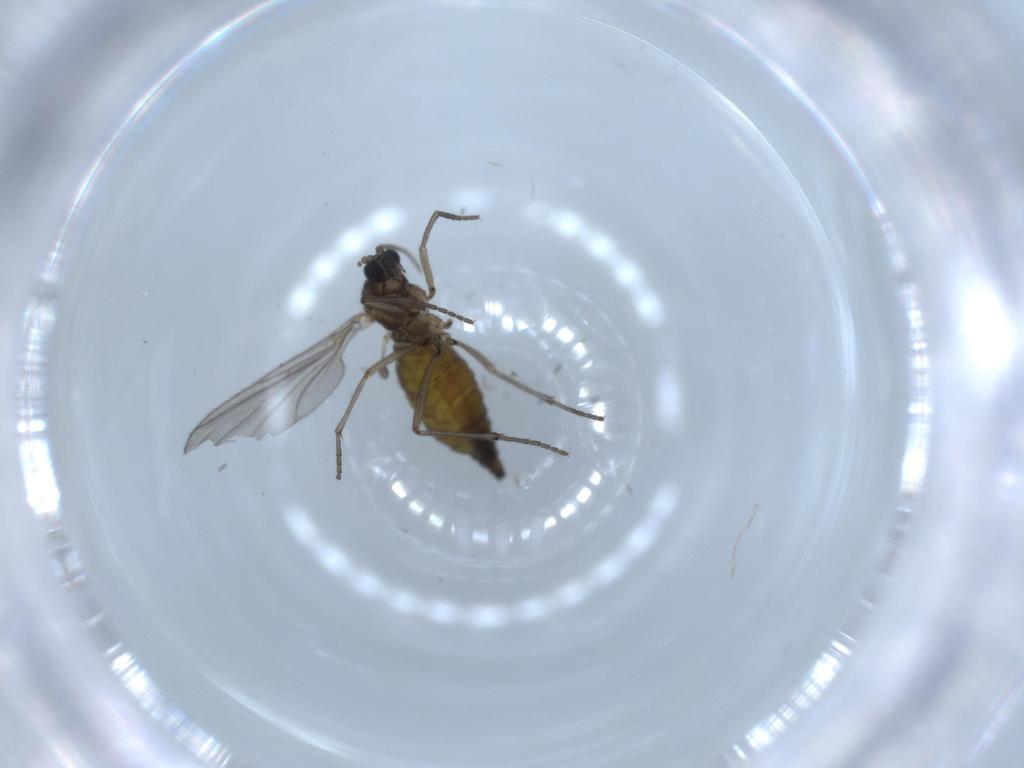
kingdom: Animalia
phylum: Arthropoda
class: Insecta
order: Diptera
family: Sciaridae
